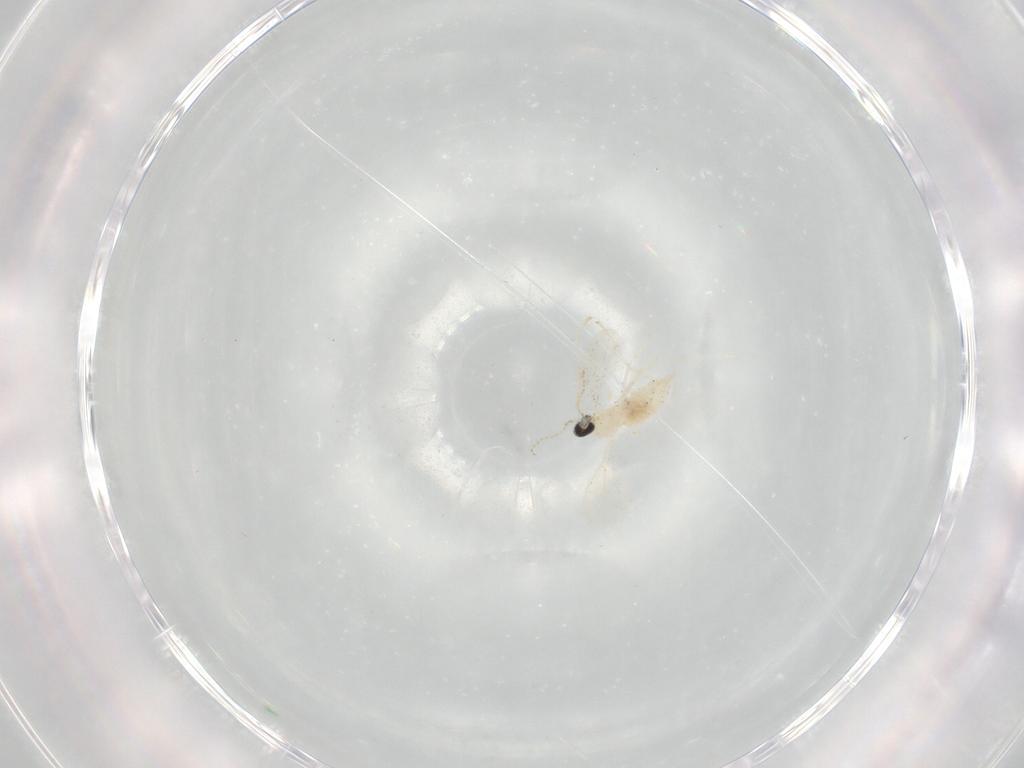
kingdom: Animalia
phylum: Arthropoda
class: Insecta
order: Diptera
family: Cecidomyiidae
